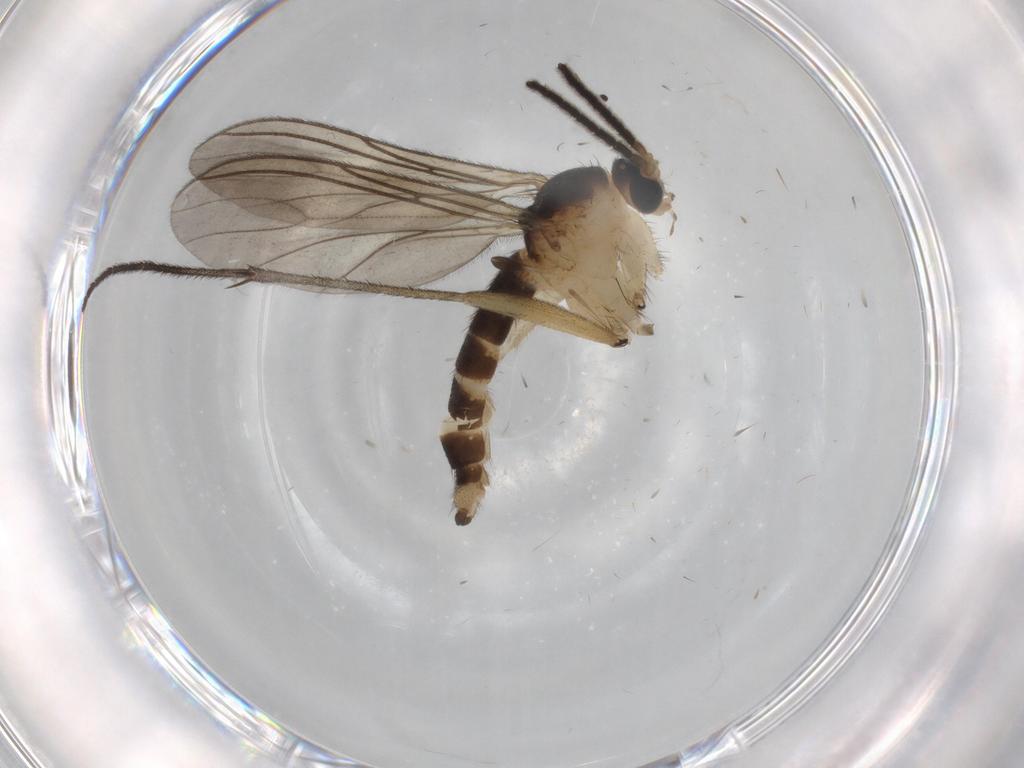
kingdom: Animalia
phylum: Arthropoda
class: Insecta
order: Diptera
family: Sciaridae
